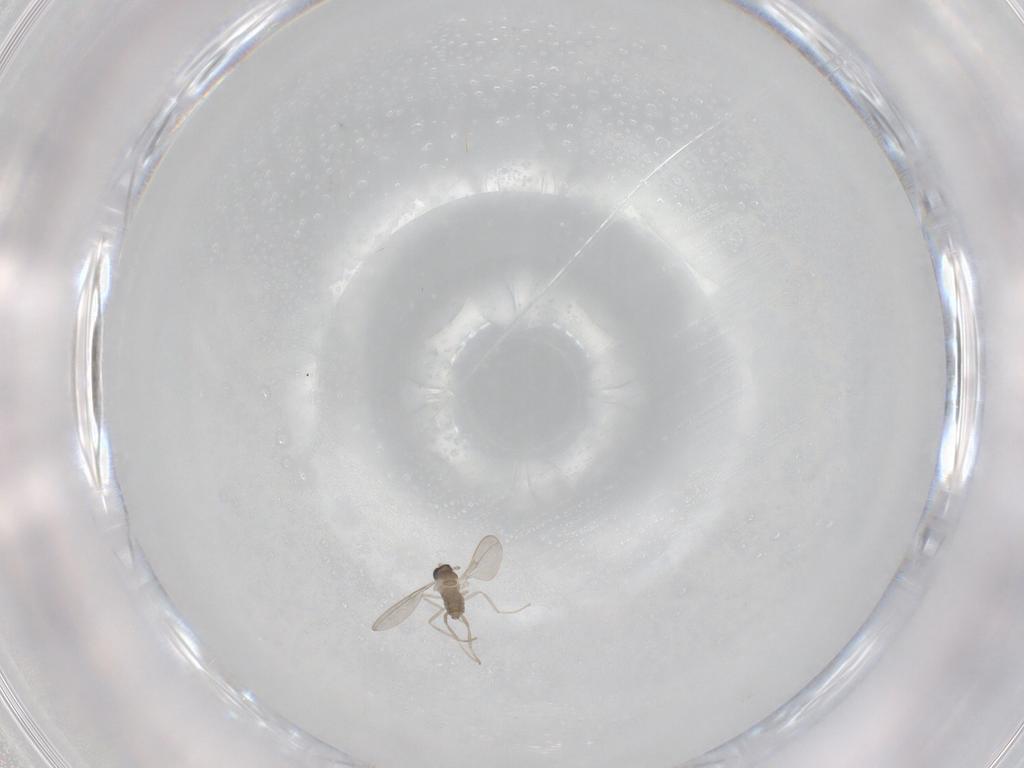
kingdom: Animalia
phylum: Arthropoda
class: Insecta
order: Diptera
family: Cecidomyiidae
